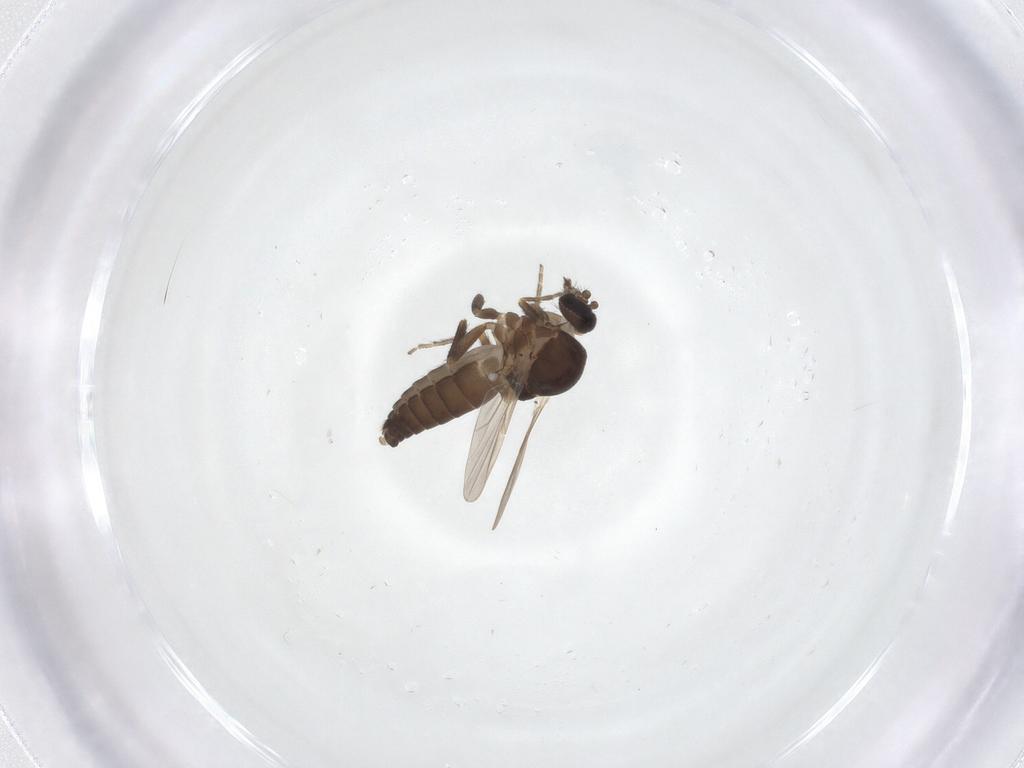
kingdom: Animalia
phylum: Arthropoda
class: Insecta
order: Diptera
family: Ceratopogonidae
